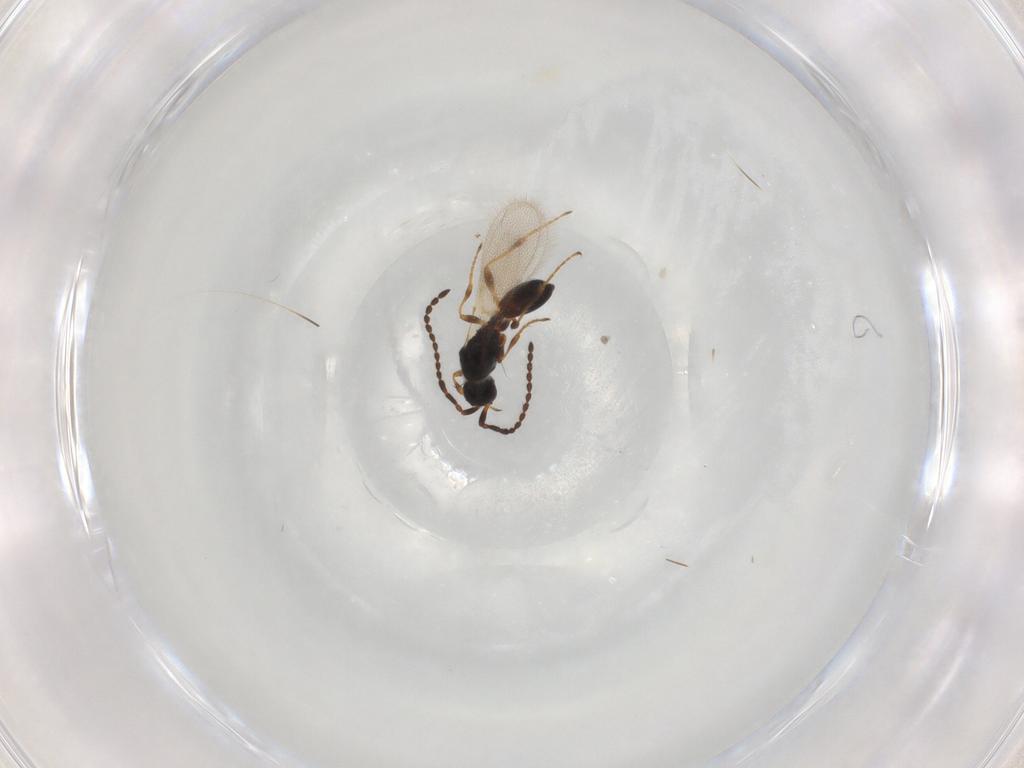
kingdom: Animalia
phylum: Arthropoda
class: Insecta
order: Hymenoptera
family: Diapriidae
